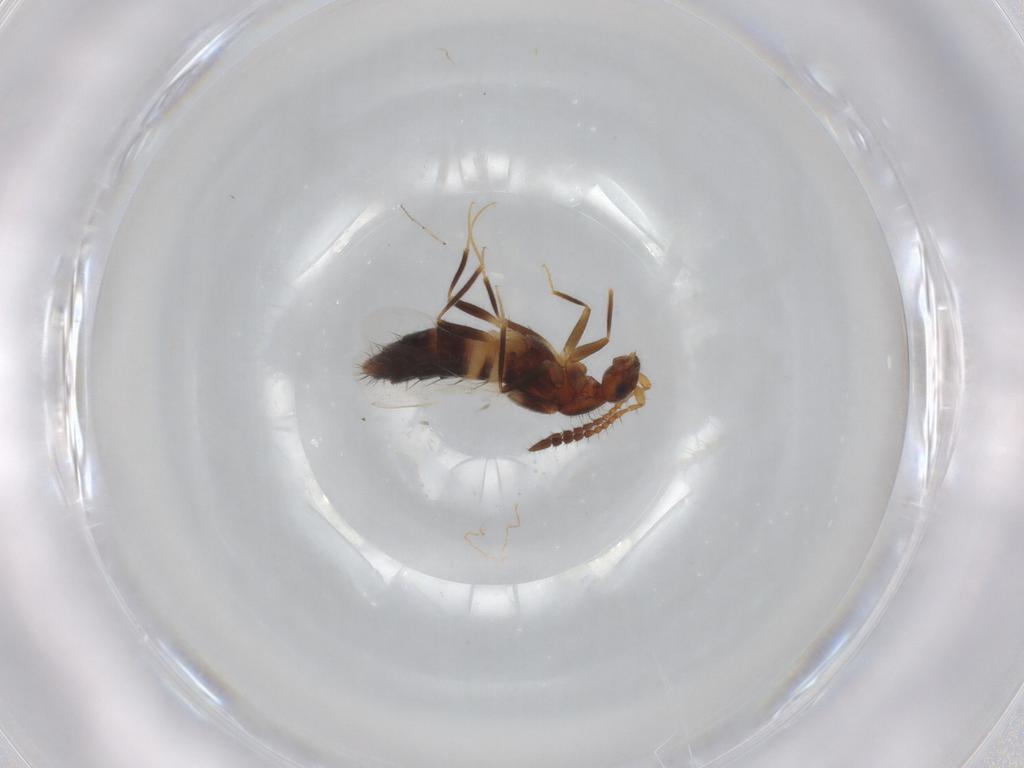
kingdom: Animalia
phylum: Arthropoda
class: Insecta
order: Coleoptera
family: Staphylinidae
